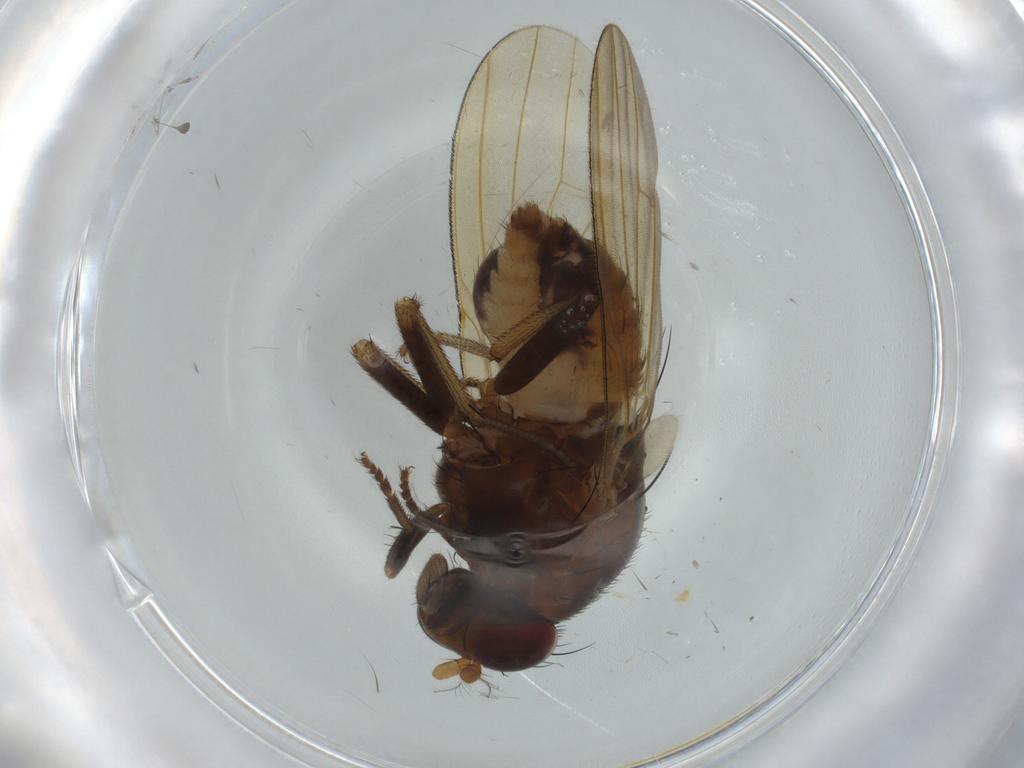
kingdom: Animalia
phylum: Arthropoda
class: Insecta
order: Diptera
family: Lauxaniidae
